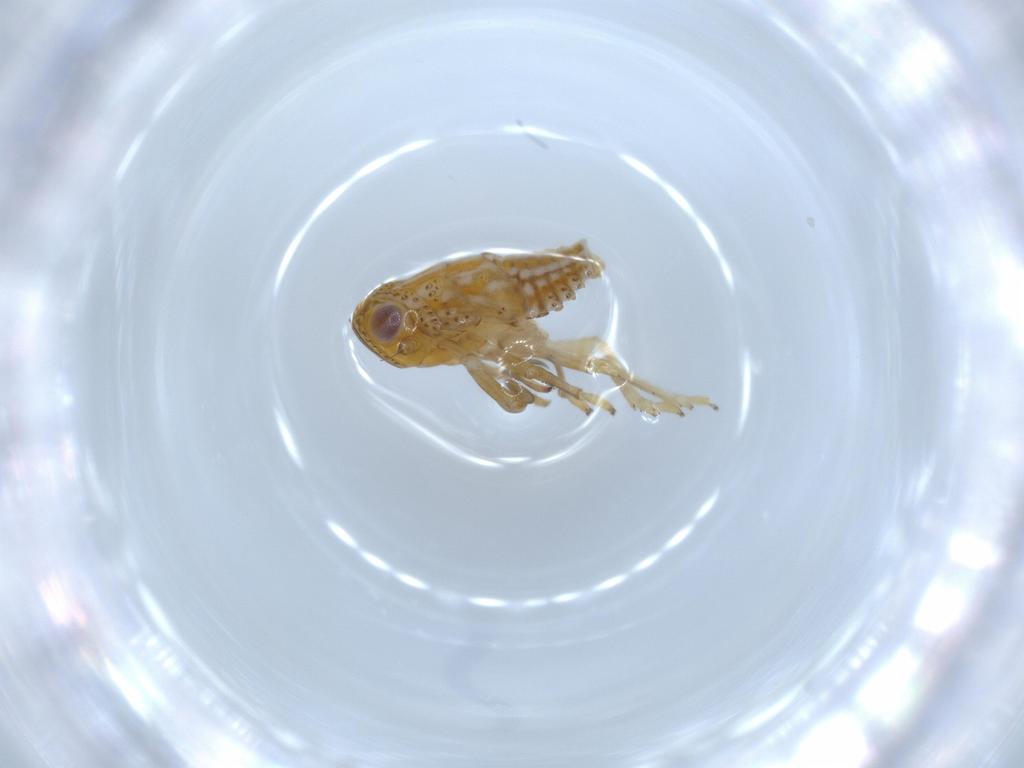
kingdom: Animalia
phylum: Arthropoda
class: Insecta
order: Hemiptera
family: Issidae
